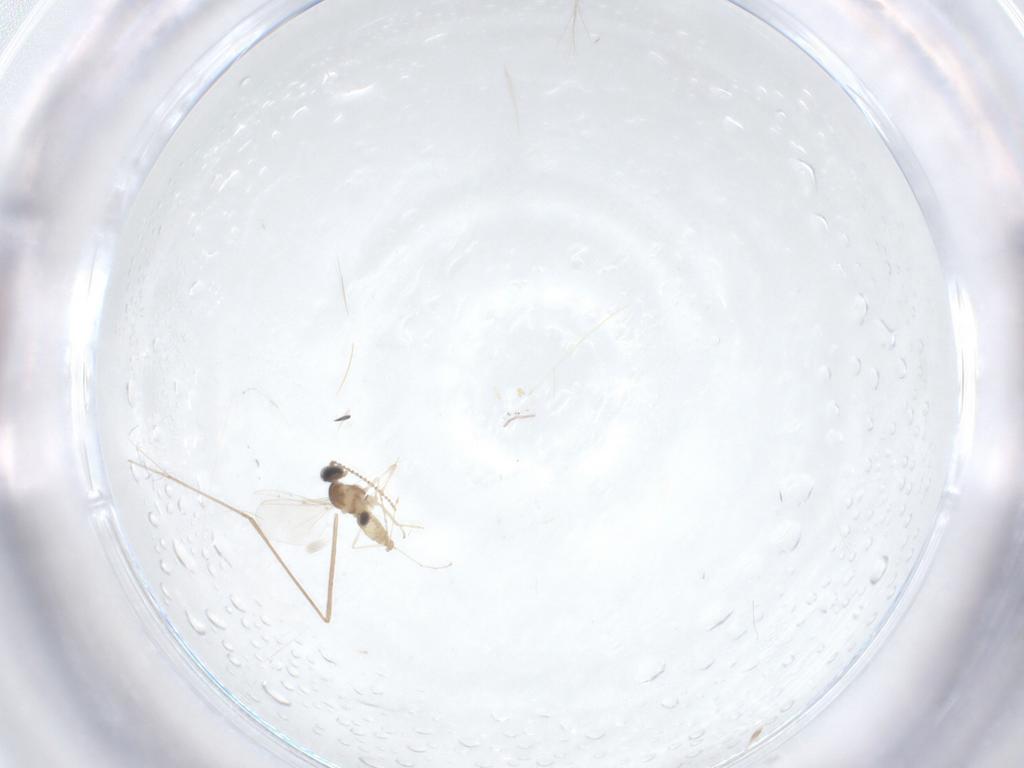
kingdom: Animalia
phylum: Arthropoda
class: Insecta
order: Diptera
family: Cecidomyiidae
